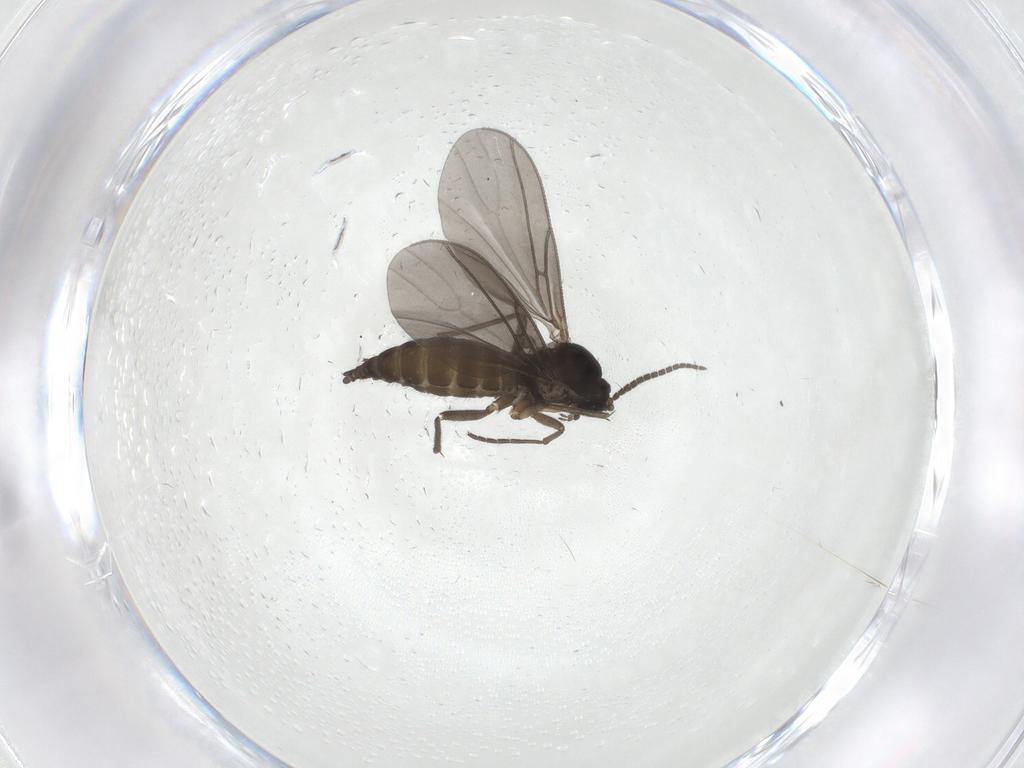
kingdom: Animalia
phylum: Arthropoda
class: Insecta
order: Diptera
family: Sciaridae
